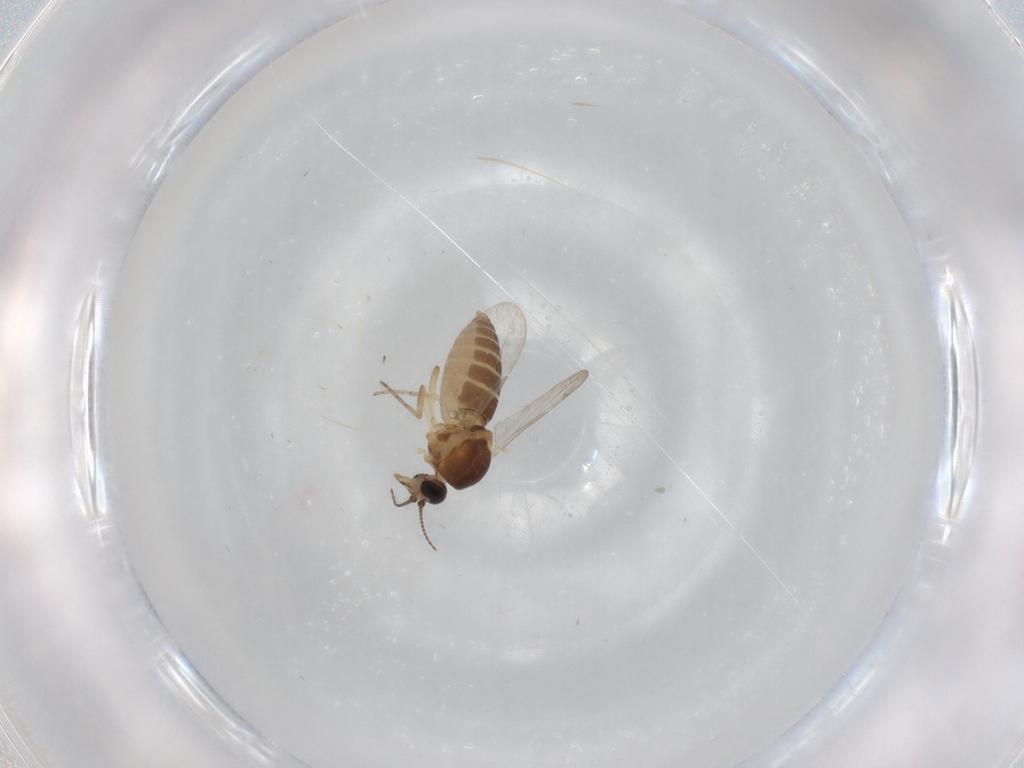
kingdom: Animalia
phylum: Arthropoda
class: Insecta
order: Diptera
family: Ceratopogonidae
